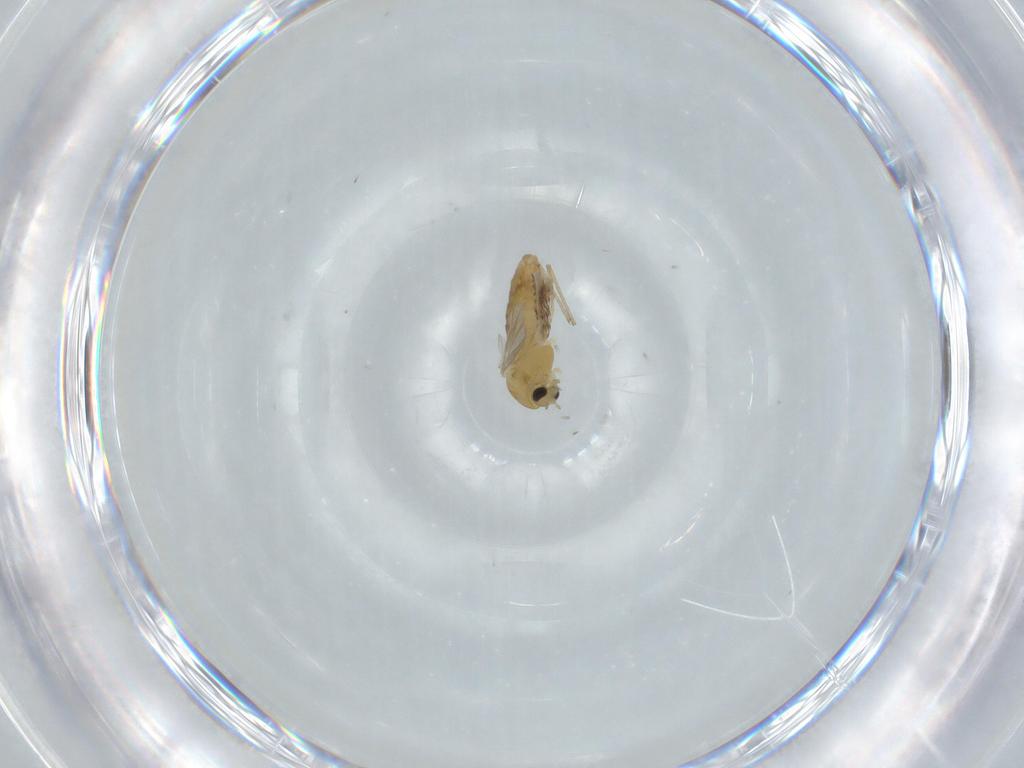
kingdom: Animalia
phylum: Arthropoda
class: Insecta
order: Diptera
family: Chironomidae
